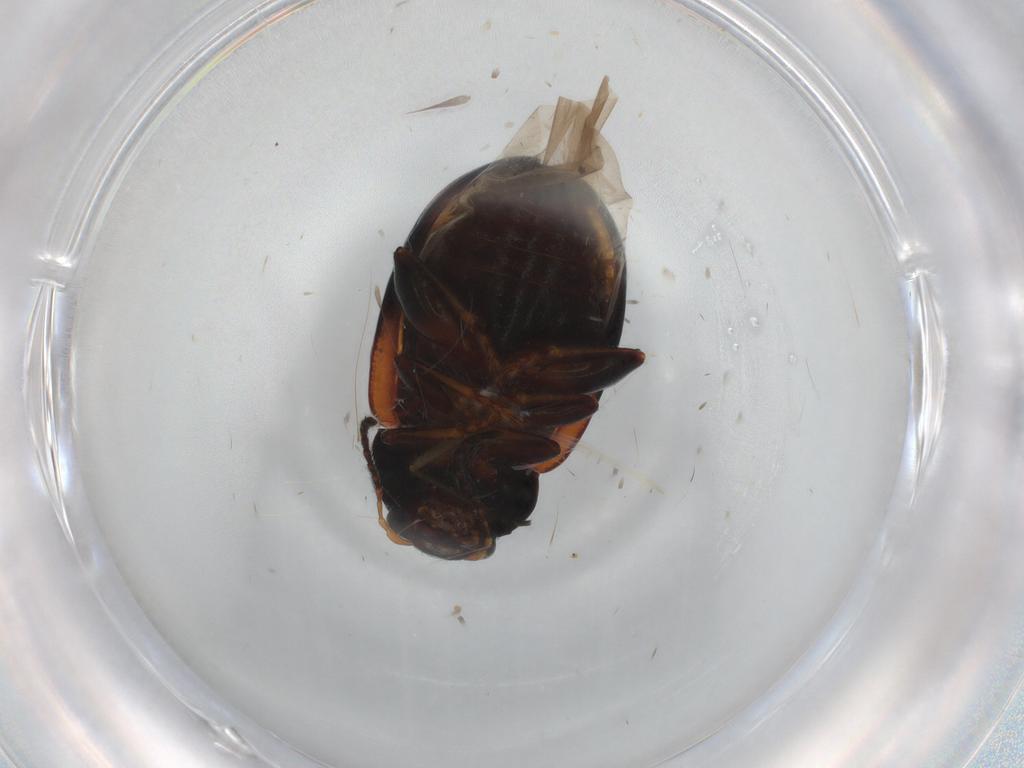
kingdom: Animalia
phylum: Arthropoda
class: Insecta
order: Coleoptera
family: Chrysomelidae
